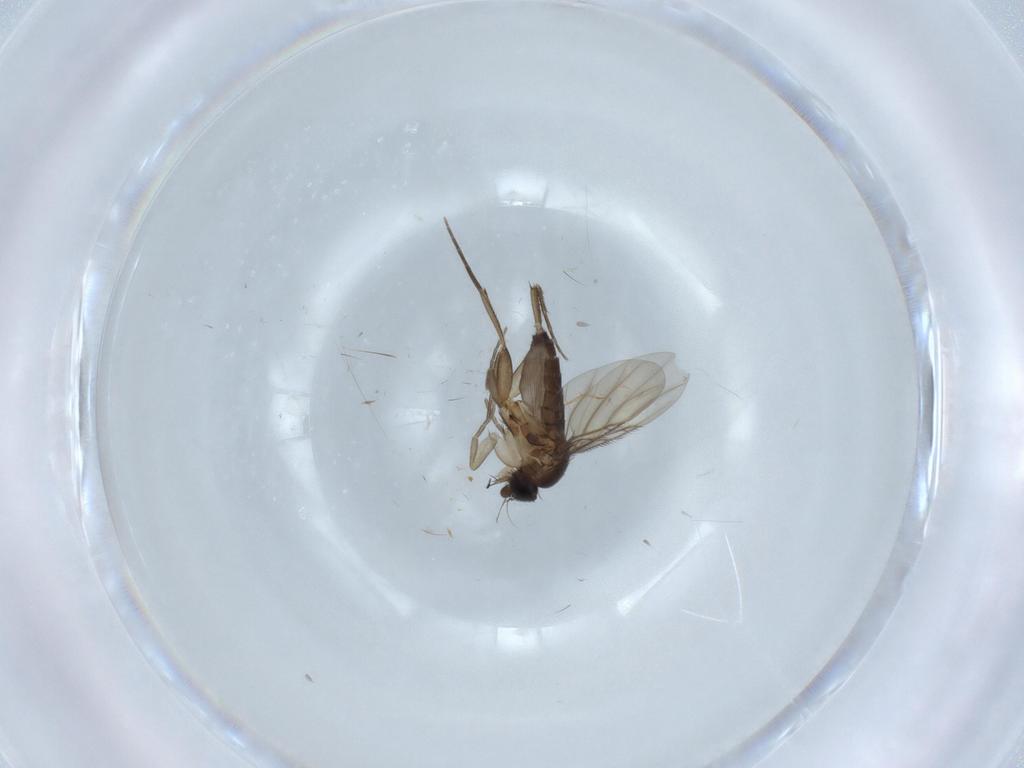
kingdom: Animalia
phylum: Arthropoda
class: Insecta
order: Diptera
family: Phoridae
